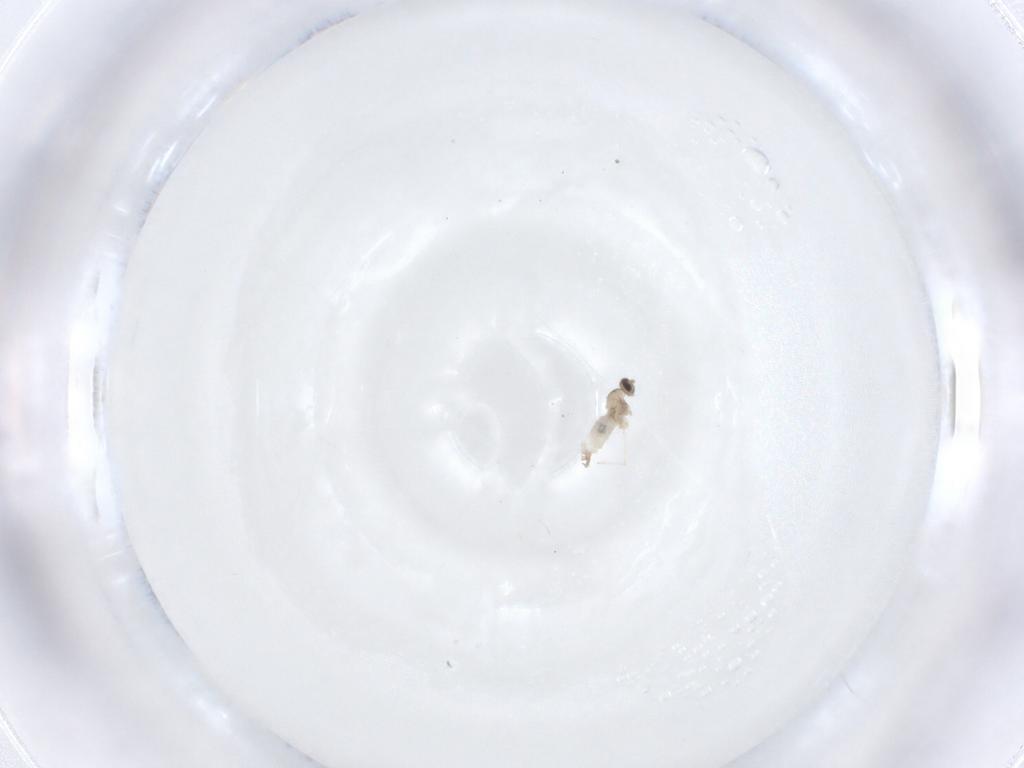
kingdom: Animalia
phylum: Arthropoda
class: Insecta
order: Diptera
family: Cecidomyiidae
